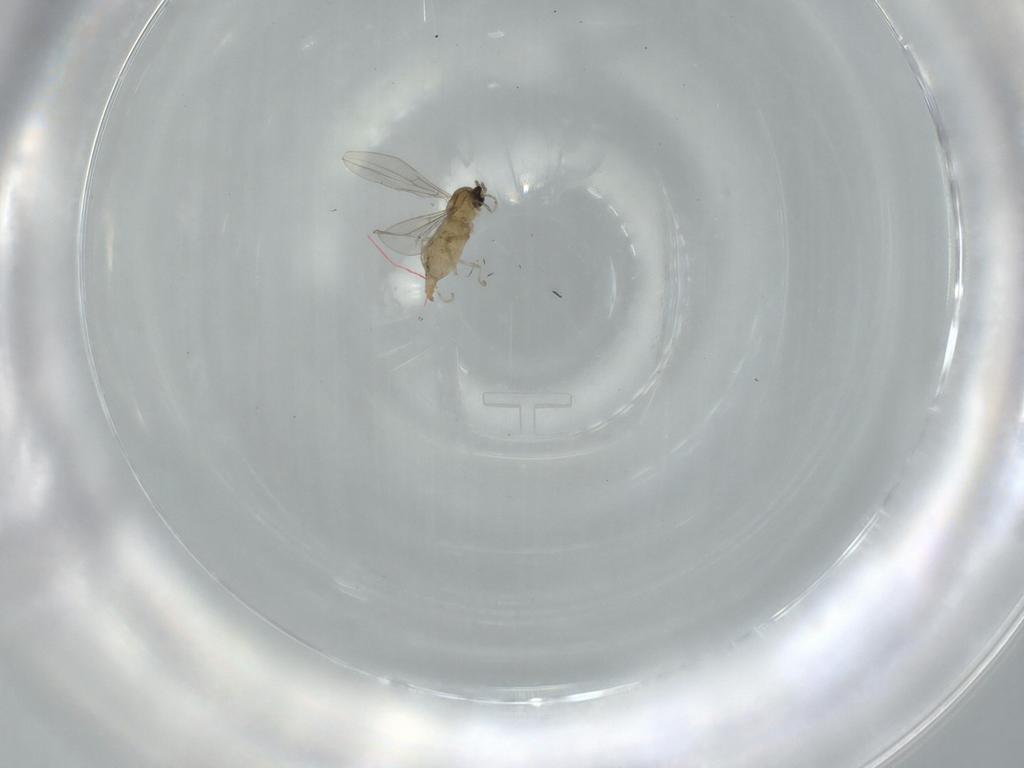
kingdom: Animalia
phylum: Arthropoda
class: Insecta
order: Diptera
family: Cecidomyiidae
